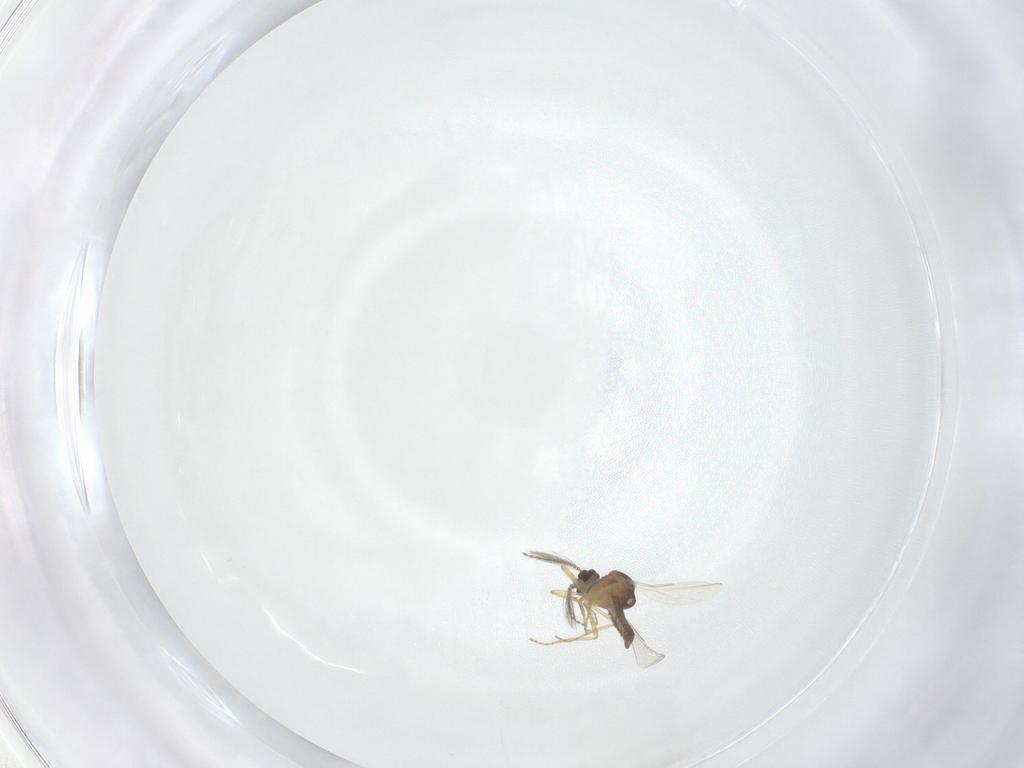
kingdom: Animalia
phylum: Arthropoda
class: Insecta
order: Diptera
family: Ceratopogonidae
